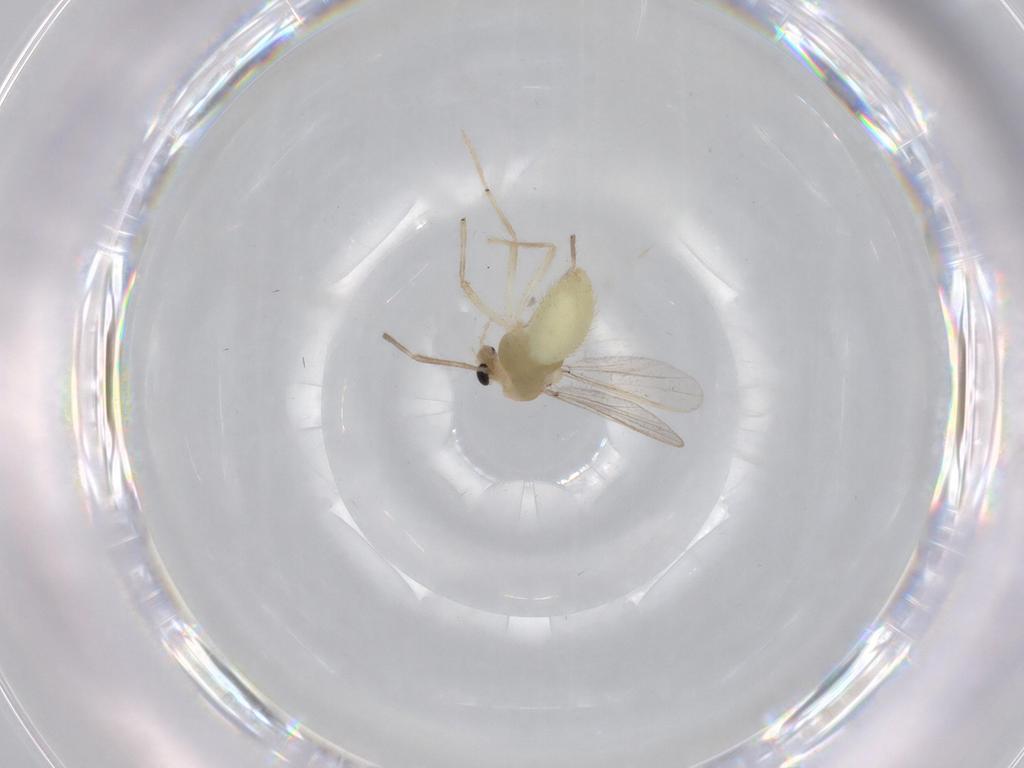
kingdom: Animalia
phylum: Arthropoda
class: Insecta
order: Diptera
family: Chironomidae
